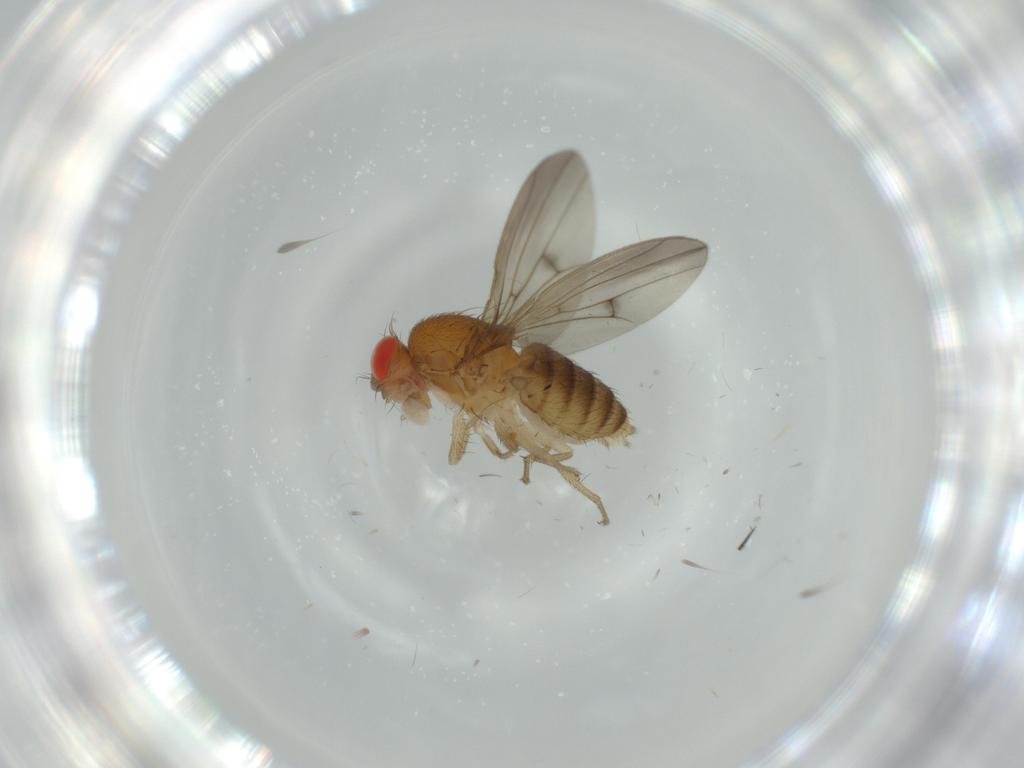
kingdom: Animalia
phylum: Arthropoda
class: Insecta
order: Diptera
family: Drosophilidae
